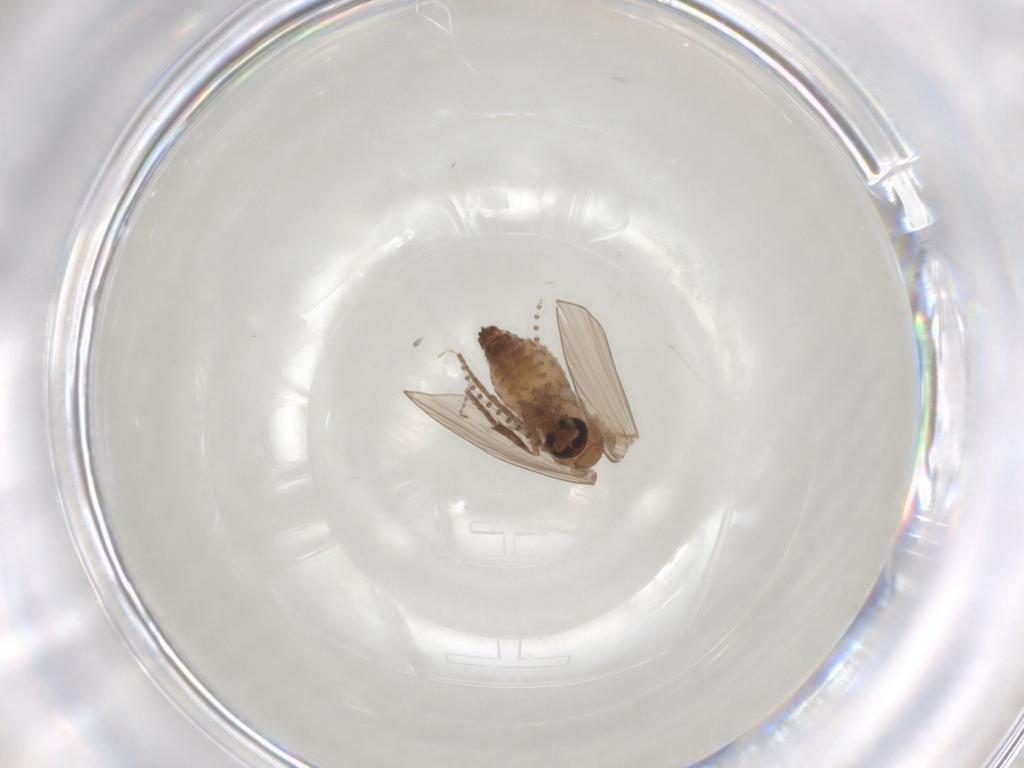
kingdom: Animalia
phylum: Arthropoda
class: Insecta
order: Diptera
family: Psychodidae
